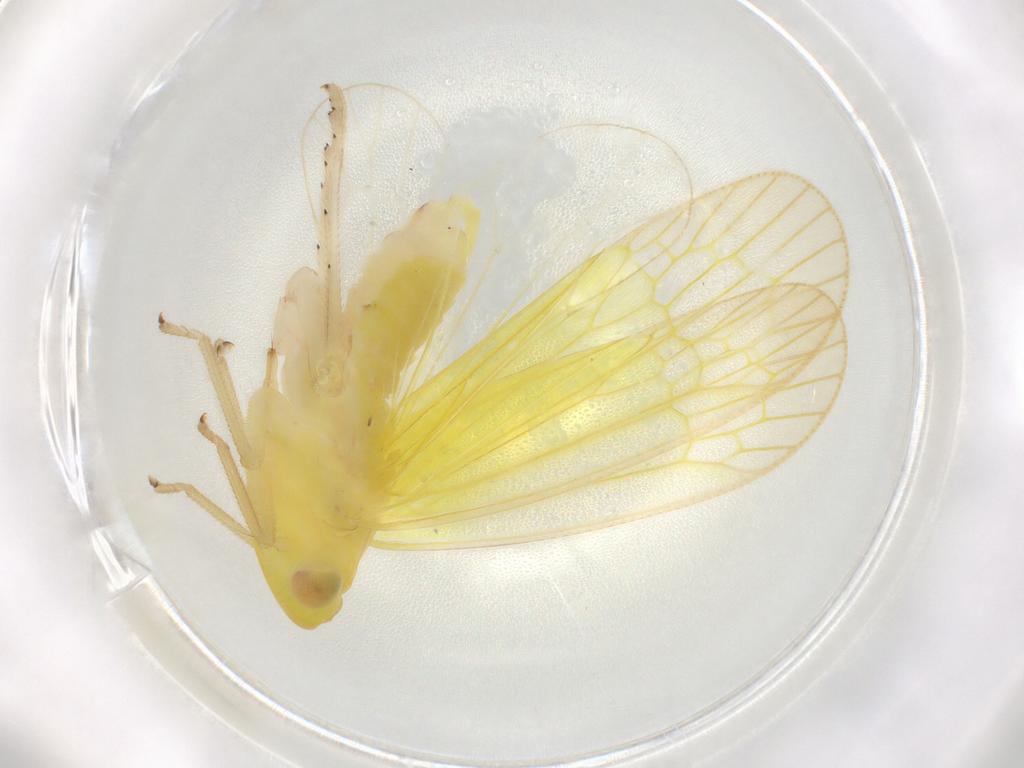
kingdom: Animalia
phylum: Arthropoda
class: Insecta
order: Hemiptera
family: Tropiduchidae
